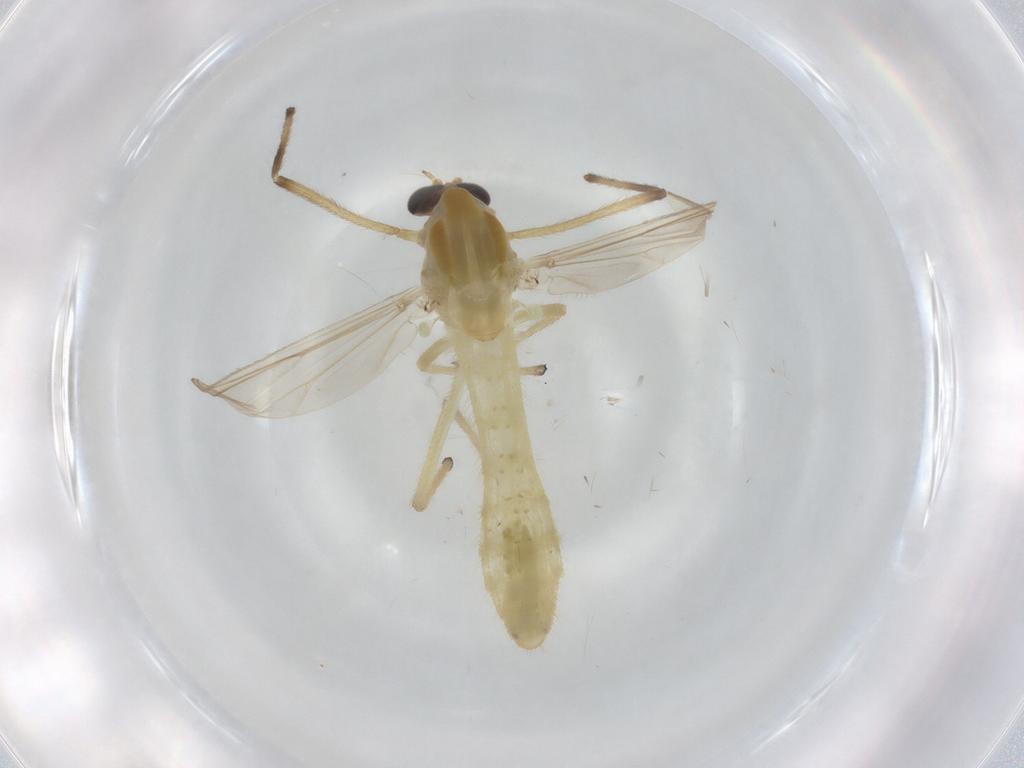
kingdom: Animalia
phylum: Arthropoda
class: Insecta
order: Diptera
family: Chironomidae
